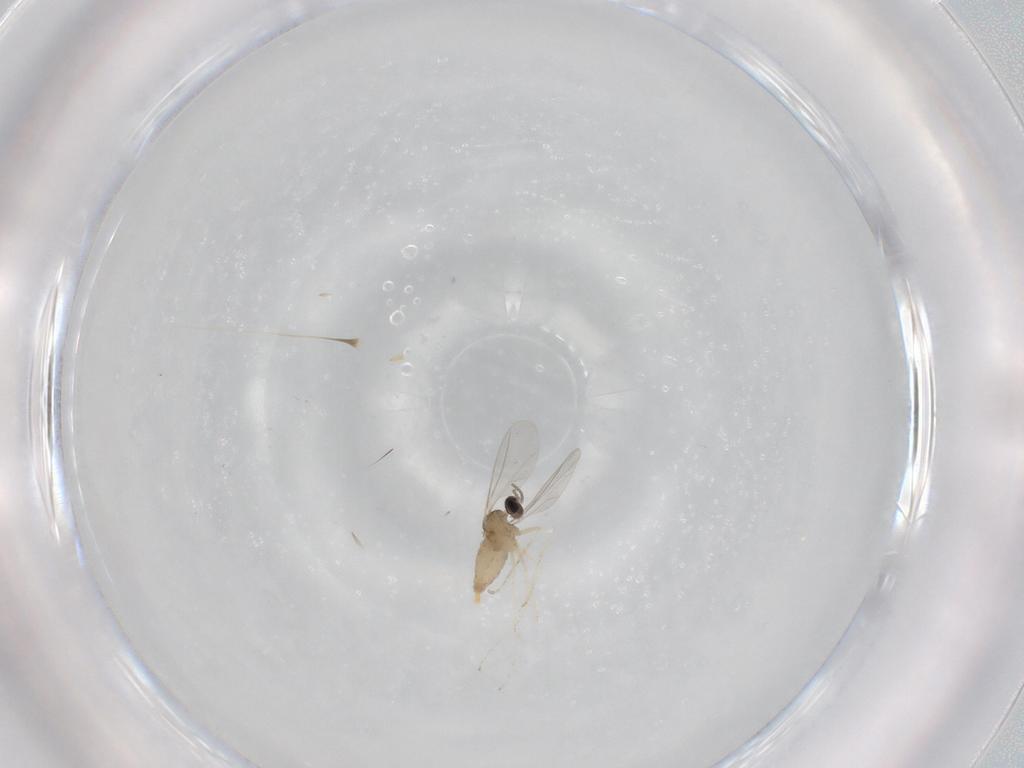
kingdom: Animalia
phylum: Arthropoda
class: Insecta
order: Diptera
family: Cecidomyiidae
